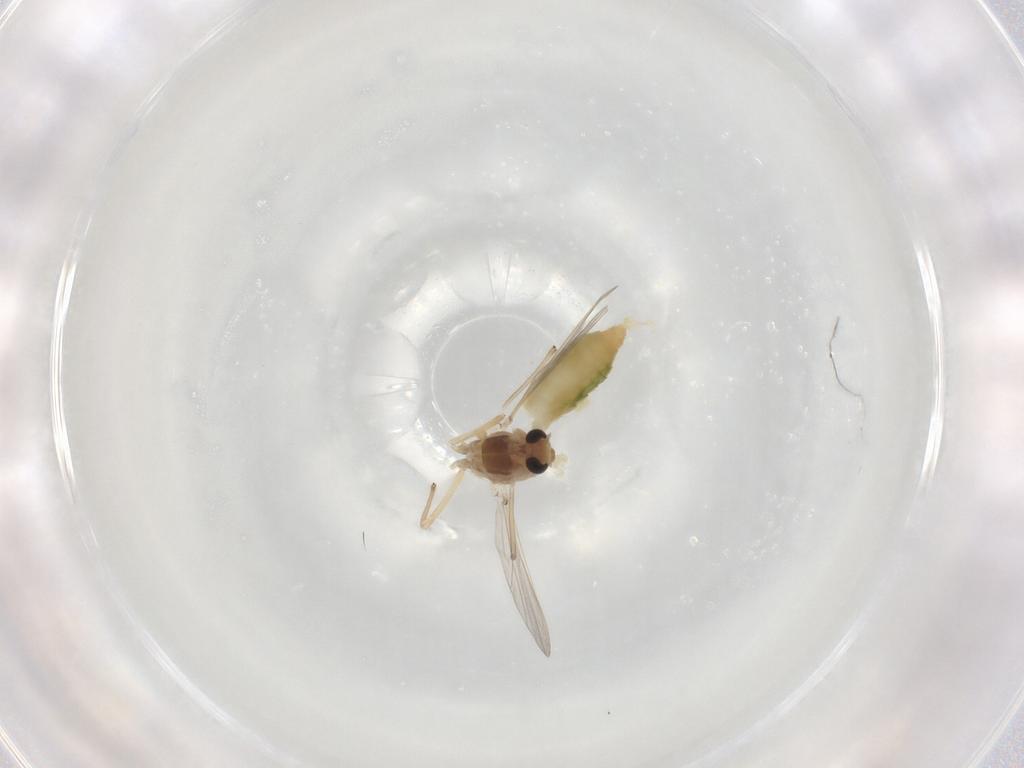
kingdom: Animalia
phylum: Arthropoda
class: Insecta
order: Diptera
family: Chironomidae
